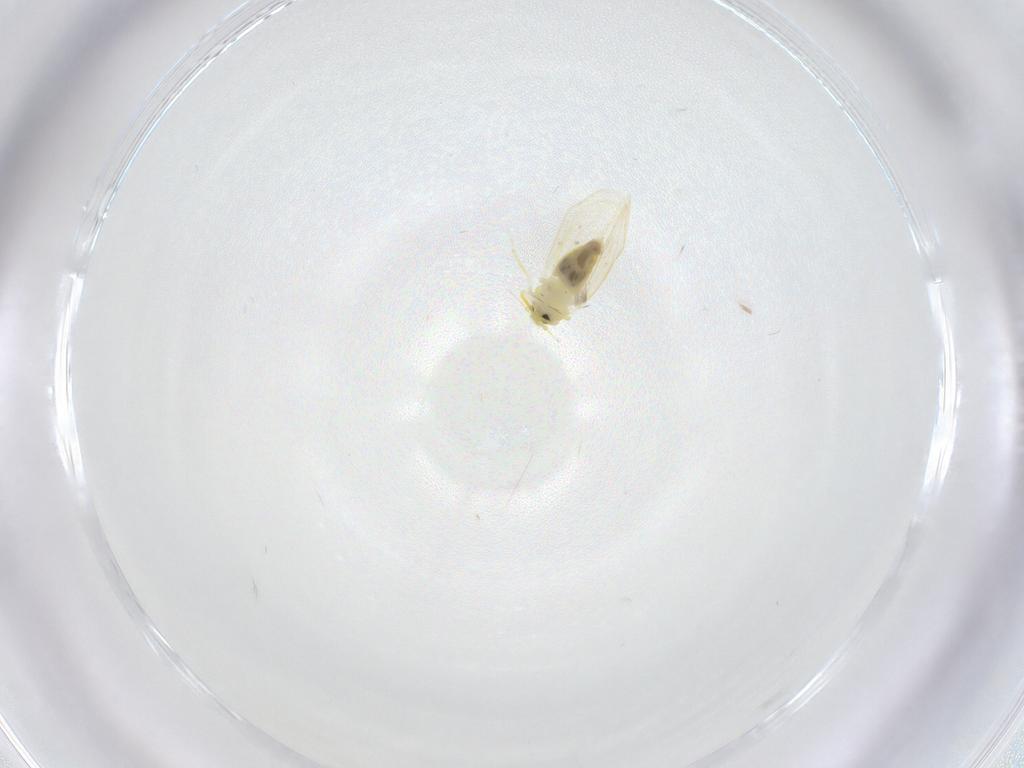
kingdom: Animalia
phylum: Arthropoda
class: Insecta
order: Hemiptera
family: Aleyrodidae
